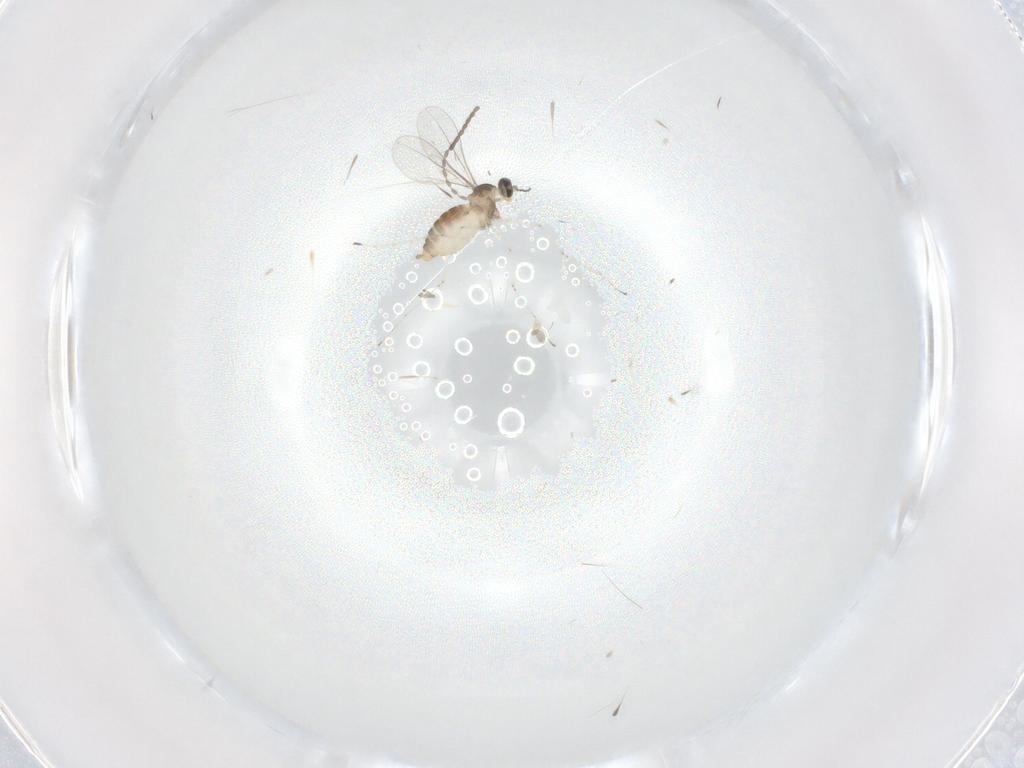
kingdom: Animalia
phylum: Arthropoda
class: Insecta
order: Diptera
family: Cecidomyiidae
